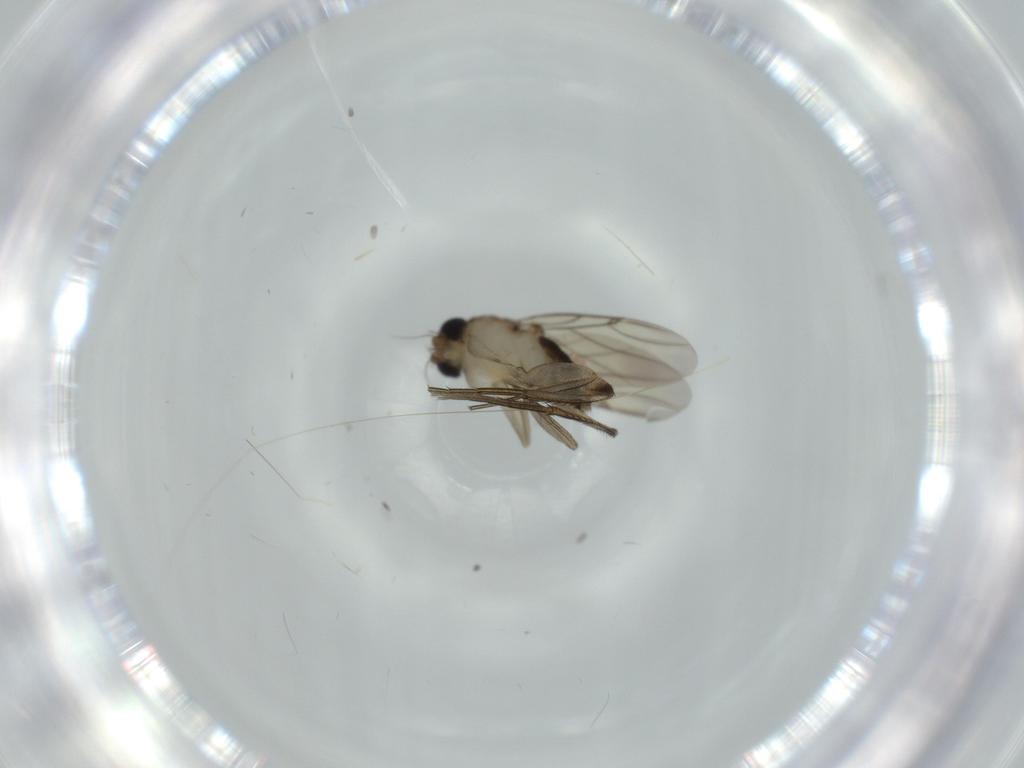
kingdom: Animalia
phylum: Arthropoda
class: Insecta
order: Diptera
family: Phoridae
